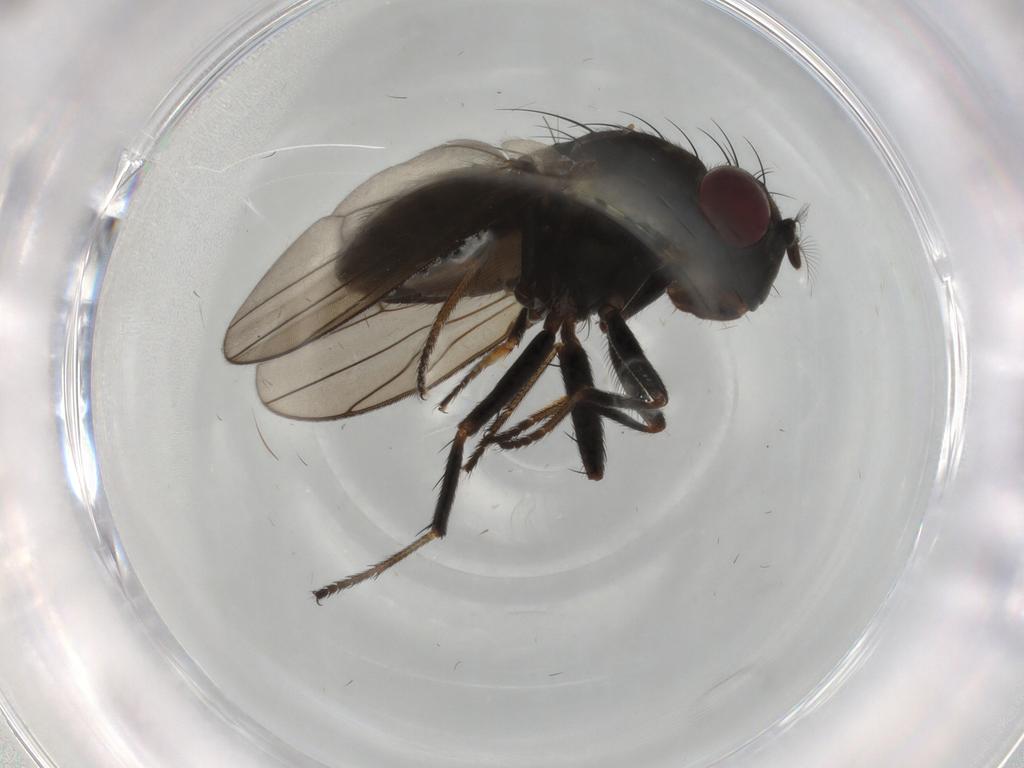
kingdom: Animalia
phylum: Arthropoda
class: Insecta
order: Diptera
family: Ephydridae
